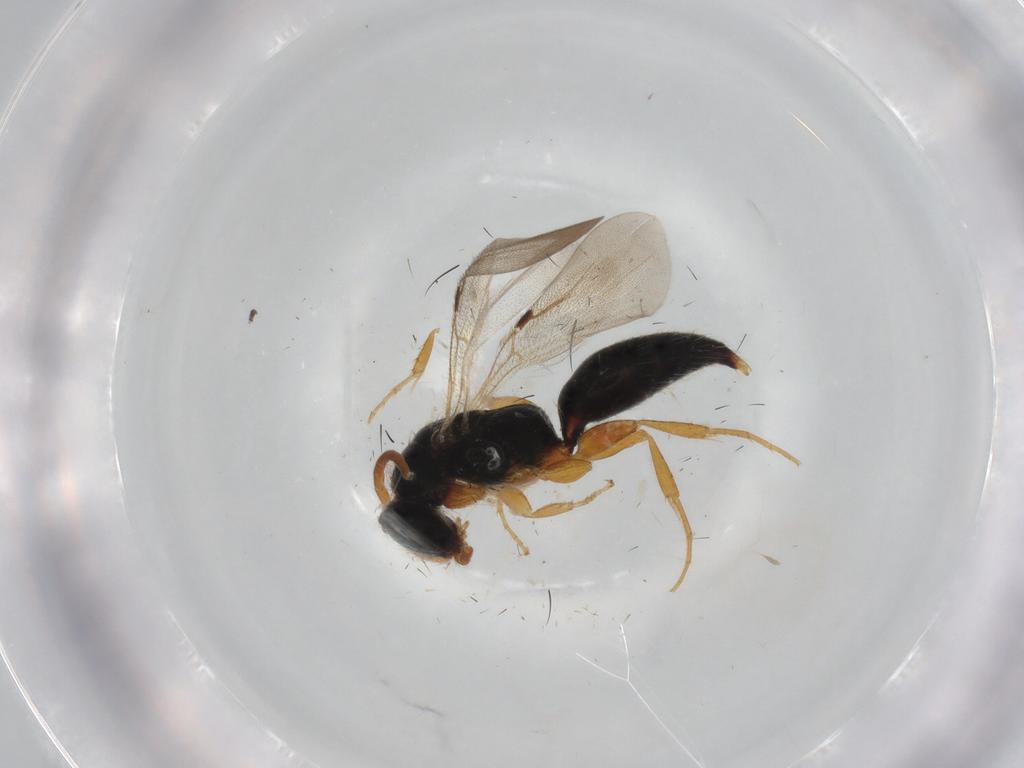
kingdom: Animalia
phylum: Arthropoda
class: Insecta
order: Hymenoptera
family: Bethylidae
